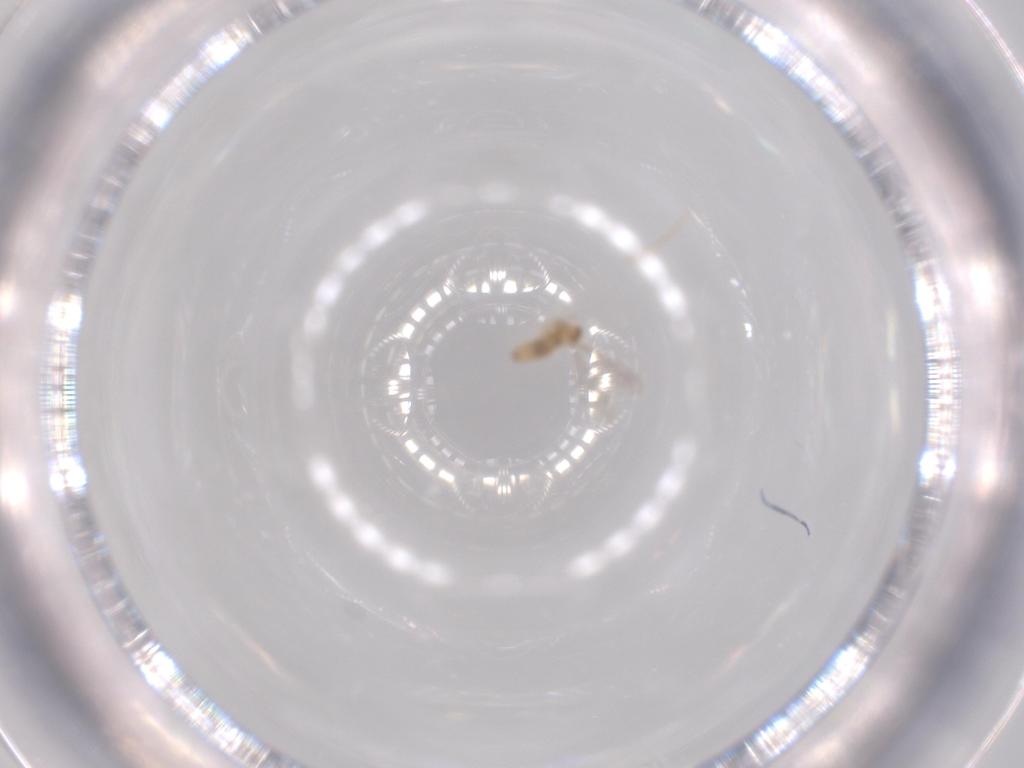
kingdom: Animalia
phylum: Arthropoda
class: Insecta
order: Diptera
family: Cecidomyiidae
